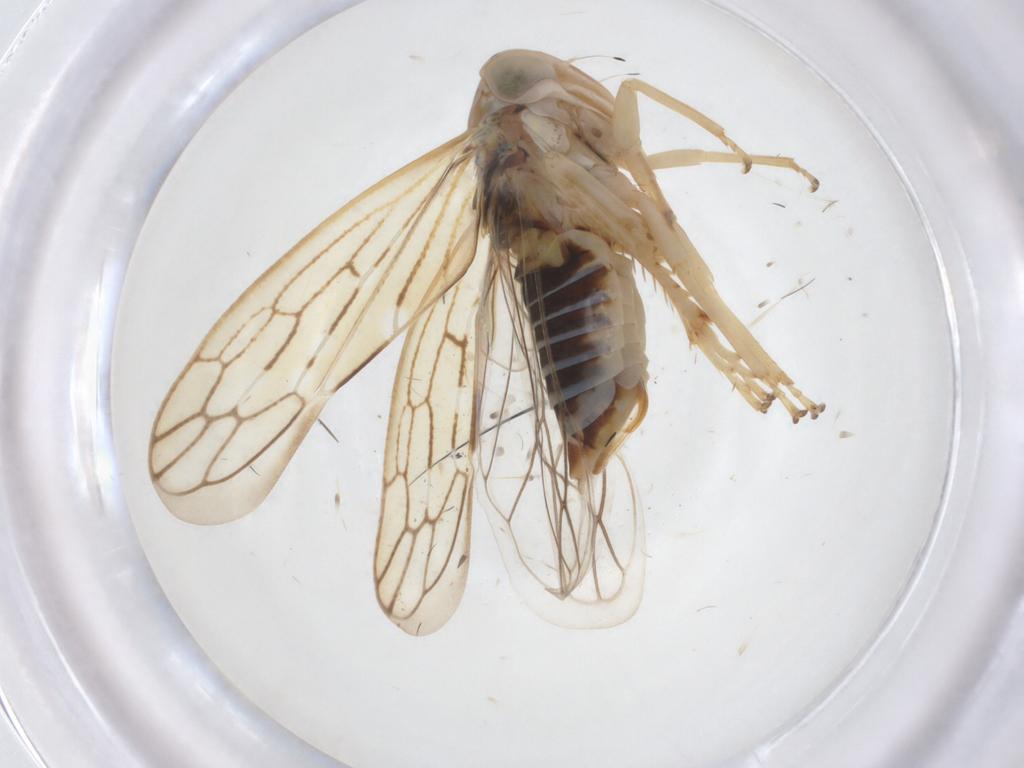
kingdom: Animalia
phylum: Arthropoda
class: Insecta
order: Hemiptera
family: Cicadellidae
